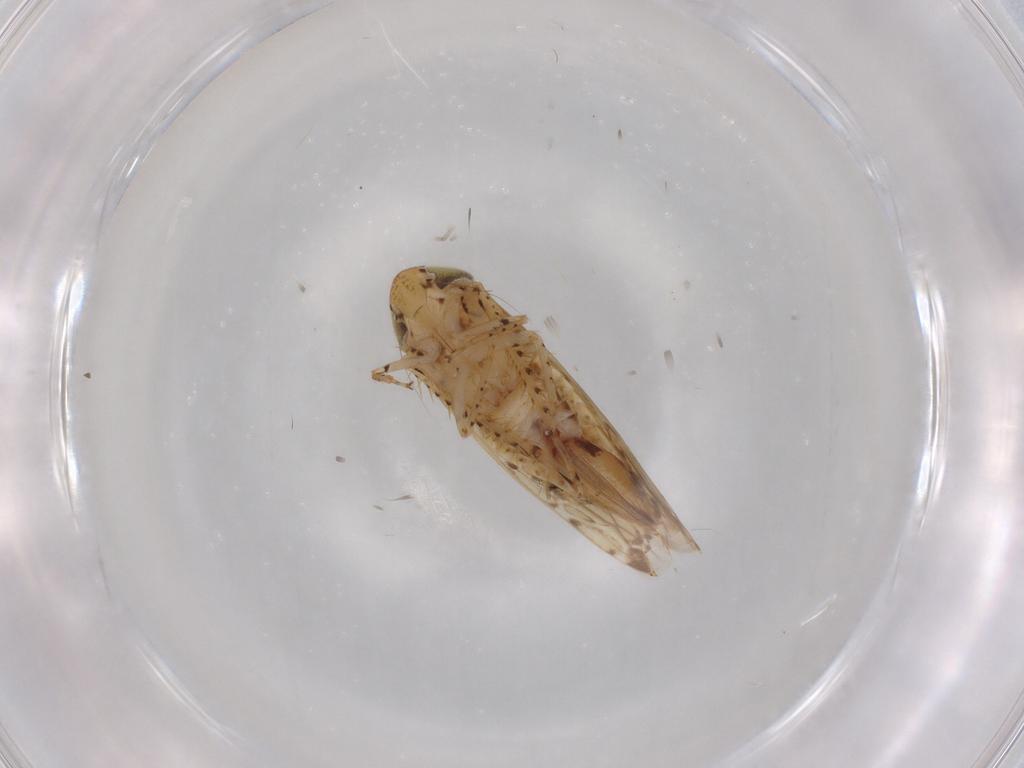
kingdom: Animalia
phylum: Arthropoda
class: Insecta
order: Hemiptera
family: Cicadellidae
